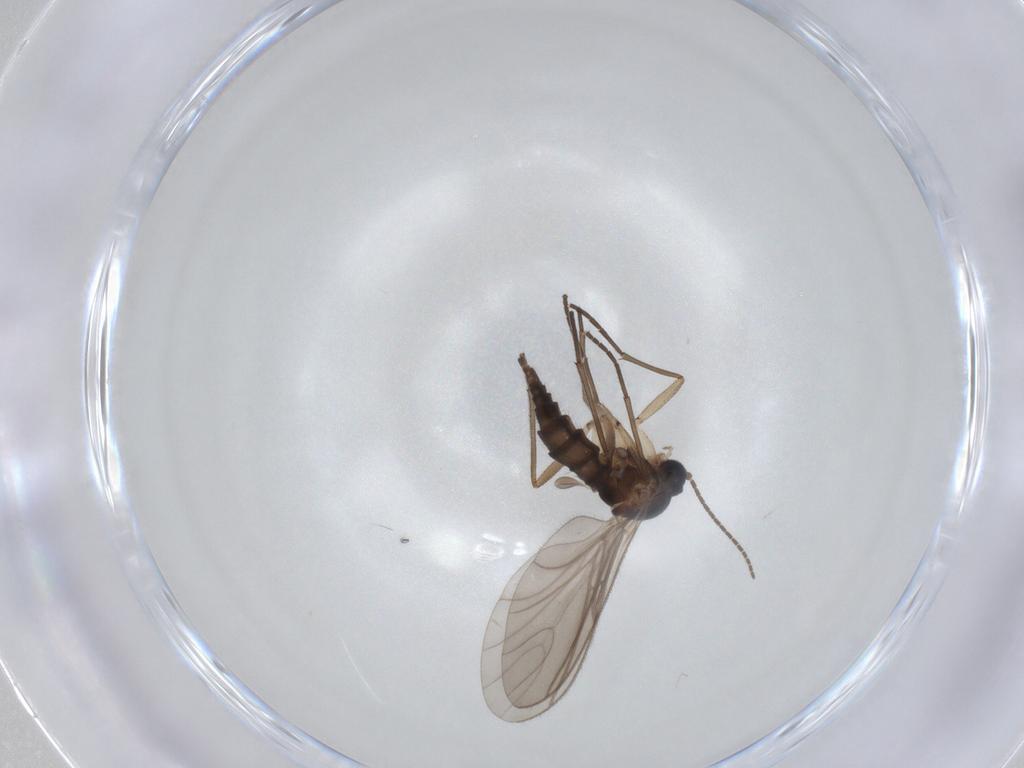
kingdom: Animalia
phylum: Arthropoda
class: Insecta
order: Diptera
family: Sciaridae
